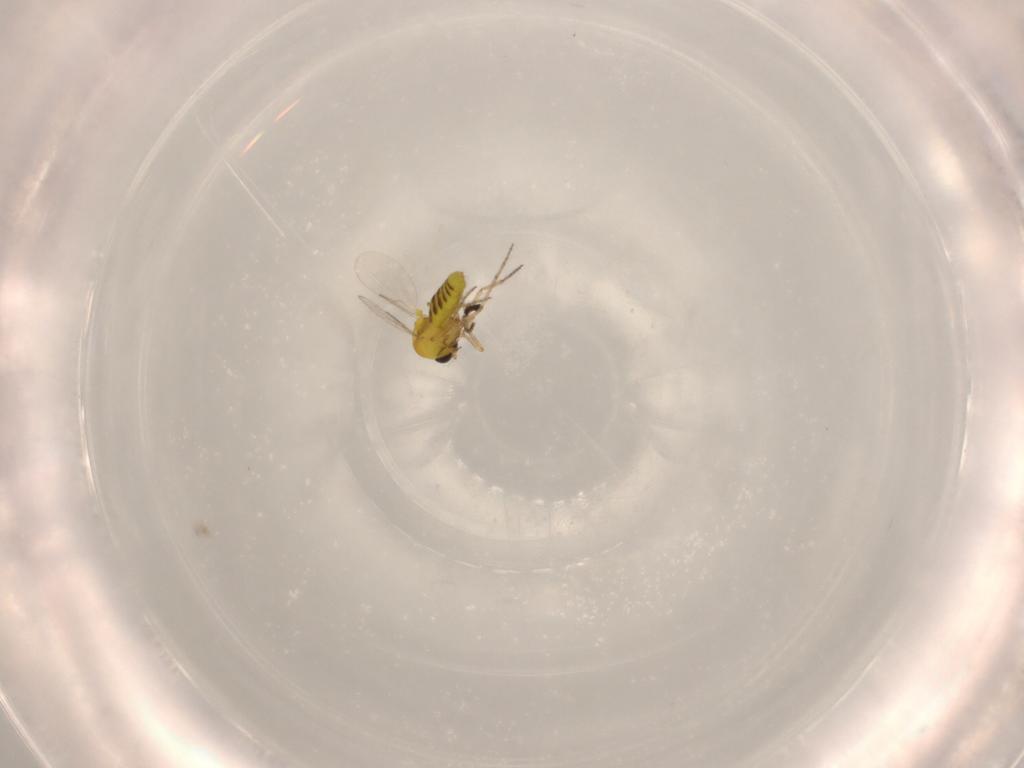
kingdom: Animalia
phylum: Arthropoda
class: Insecta
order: Diptera
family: Ceratopogonidae
